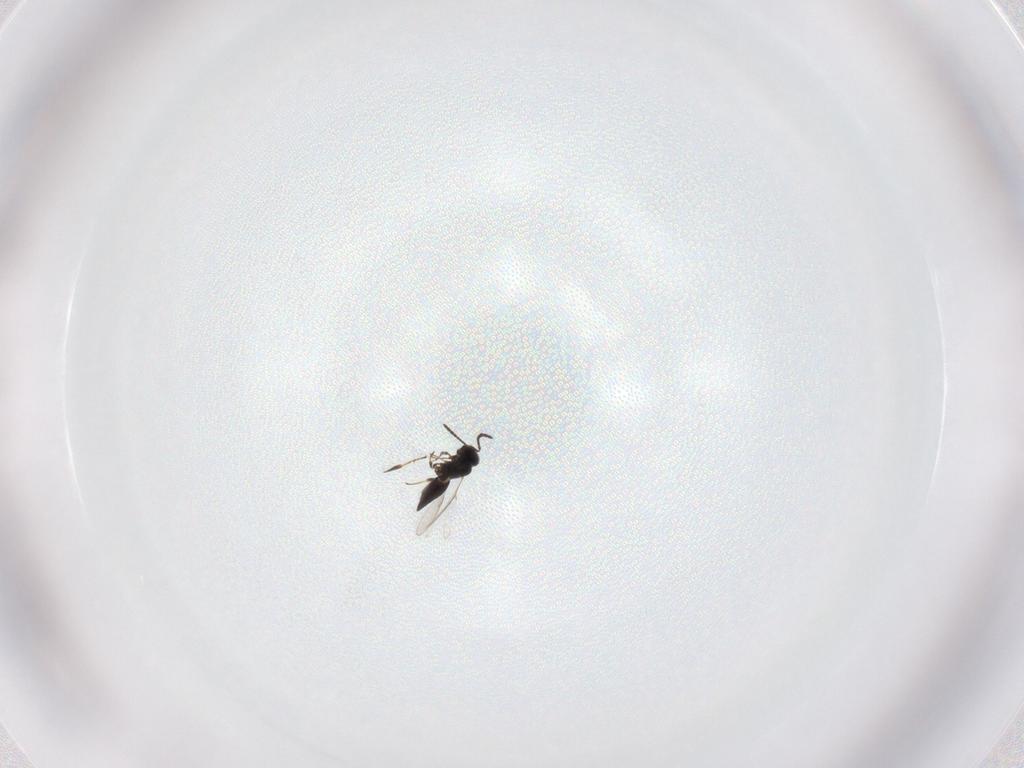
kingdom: Animalia
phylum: Arthropoda
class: Insecta
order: Hymenoptera
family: Scelionidae
